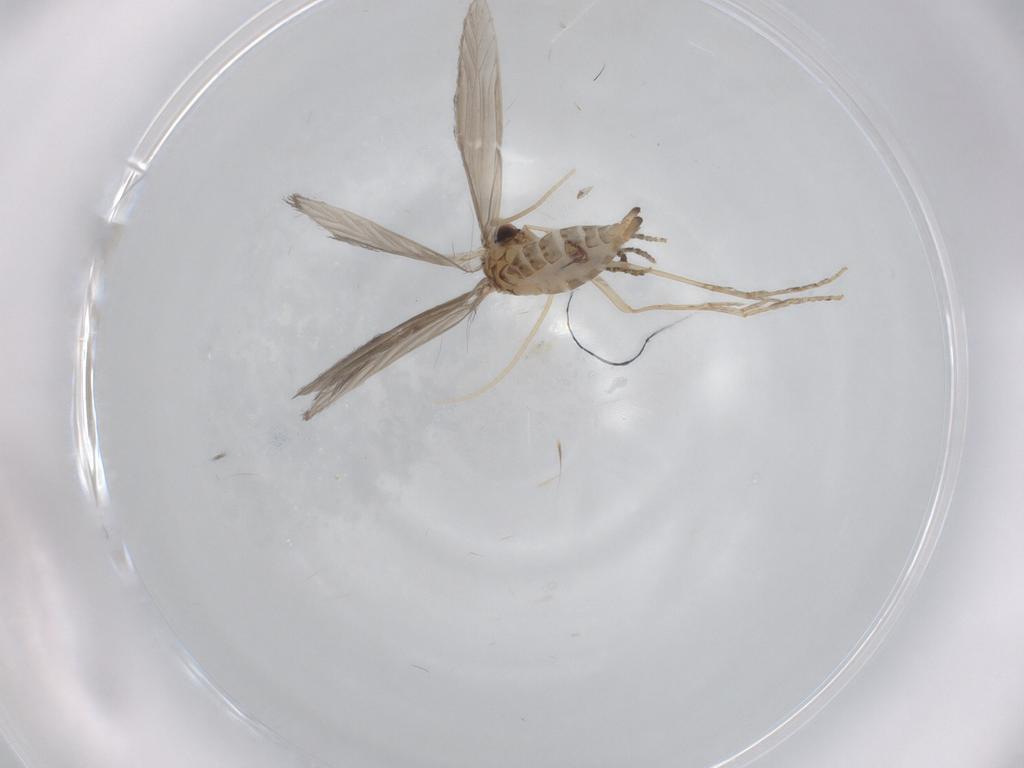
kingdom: Animalia
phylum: Arthropoda
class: Insecta
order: Trichoptera
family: Hydroptilidae
